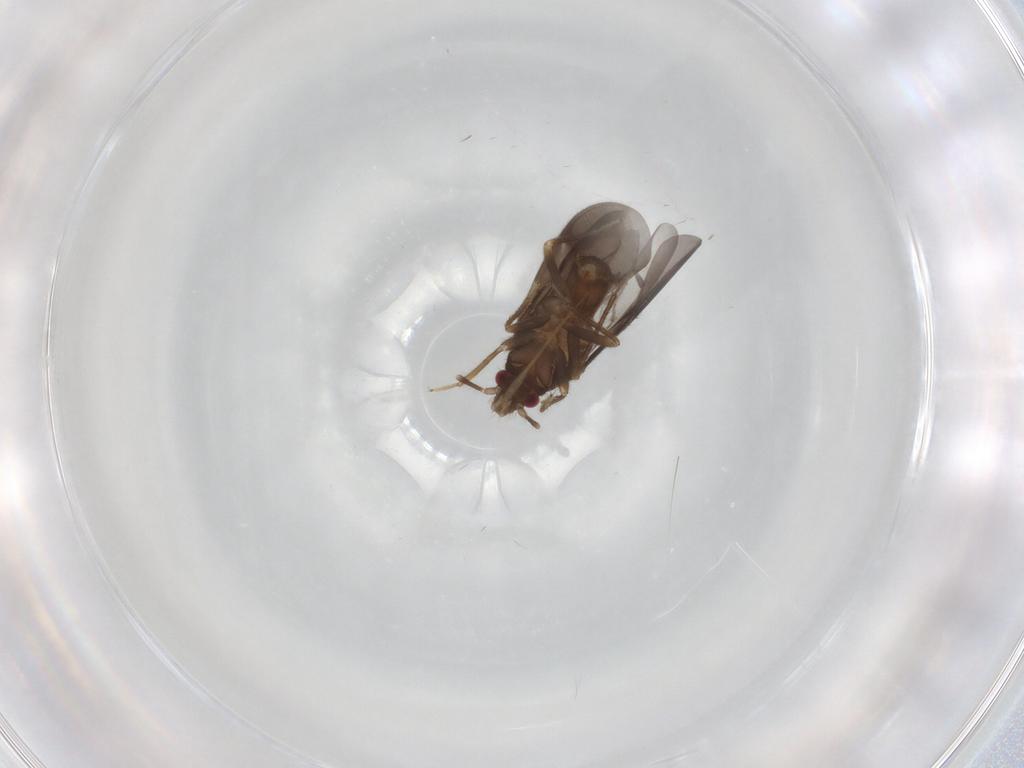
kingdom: Animalia
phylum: Arthropoda
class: Insecta
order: Hemiptera
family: Ceratocombidae
